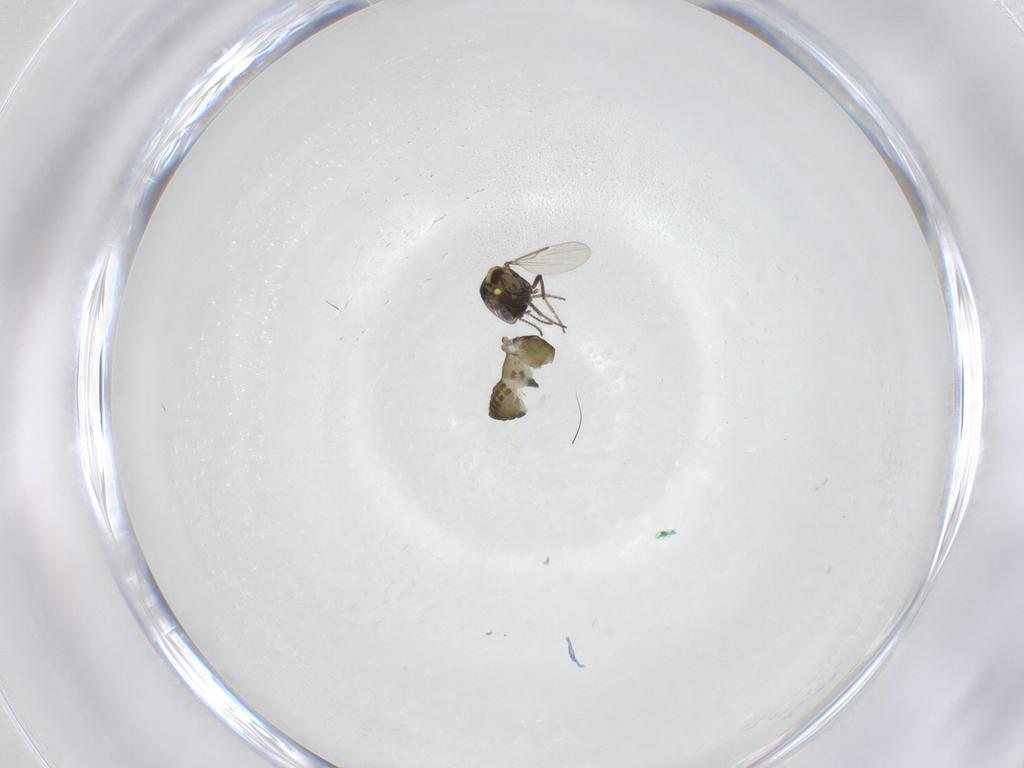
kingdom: Animalia
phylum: Arthropoda
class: Insecta
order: Diptera
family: Ceratopogonidae
